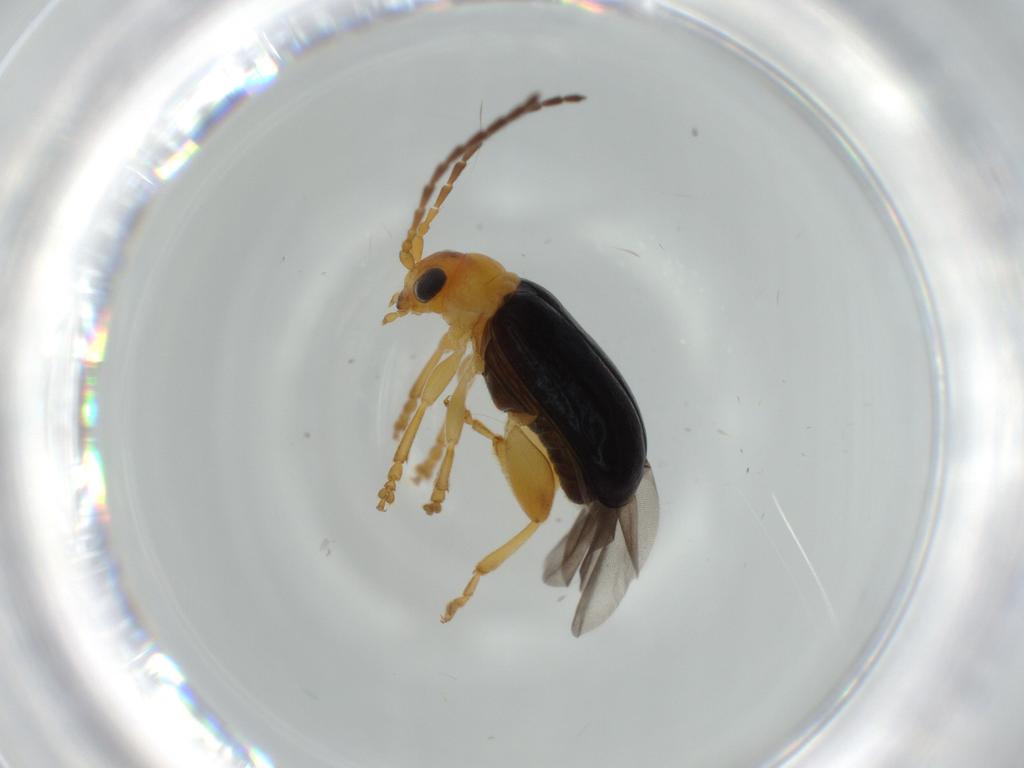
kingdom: Animalia
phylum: Arthropoda
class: Insecta
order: Coleoptera
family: Chrysomelidae
